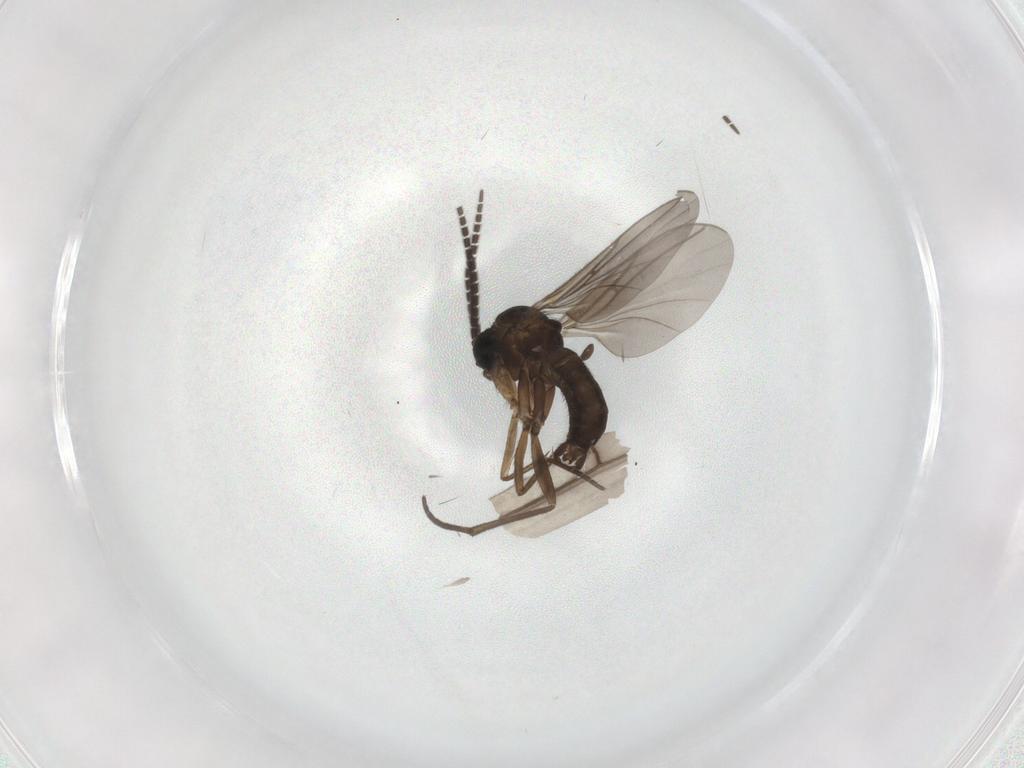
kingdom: Animalia
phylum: Arthropoda
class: Insecta
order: Diptera
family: Sciaridae
